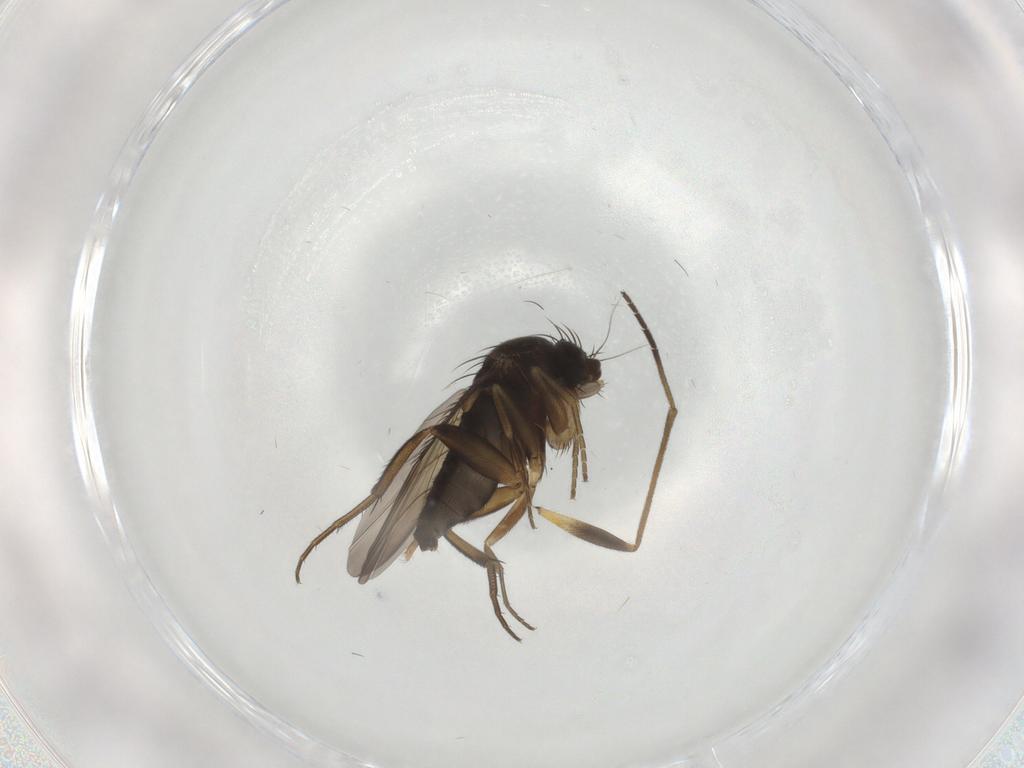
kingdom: Animalia
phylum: Arthropoda
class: Insecta
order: Diptera
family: Phoridae
